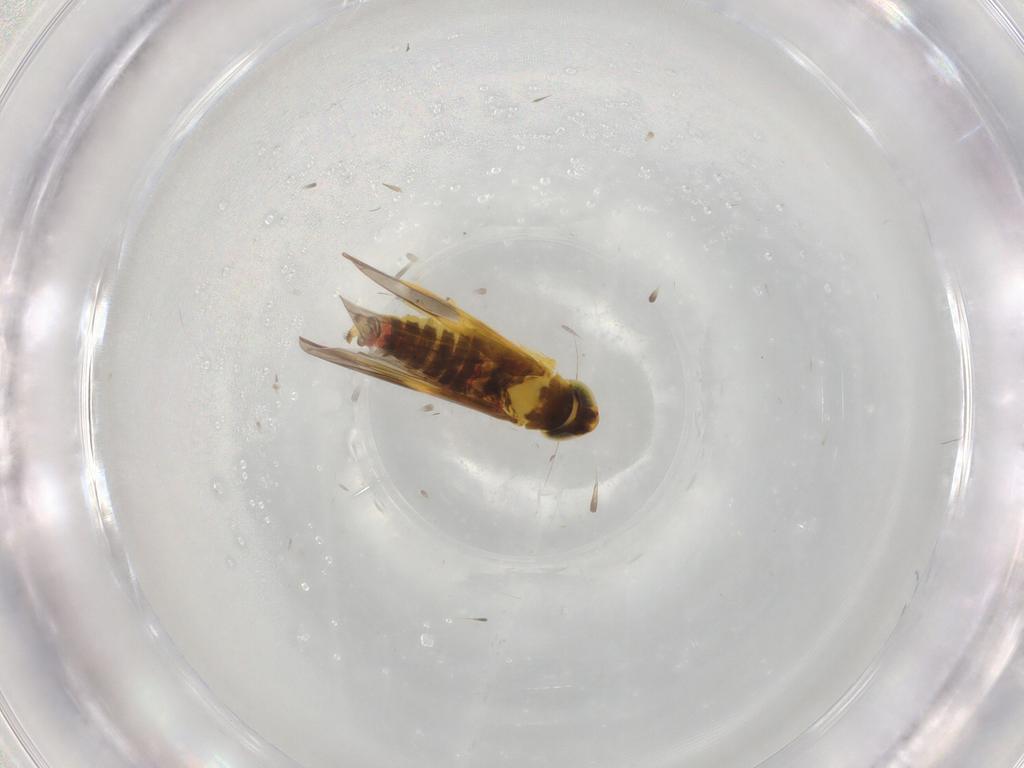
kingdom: Animalia
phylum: Arthropoda
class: Insecta
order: Hemiptera
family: Cicadellidae
